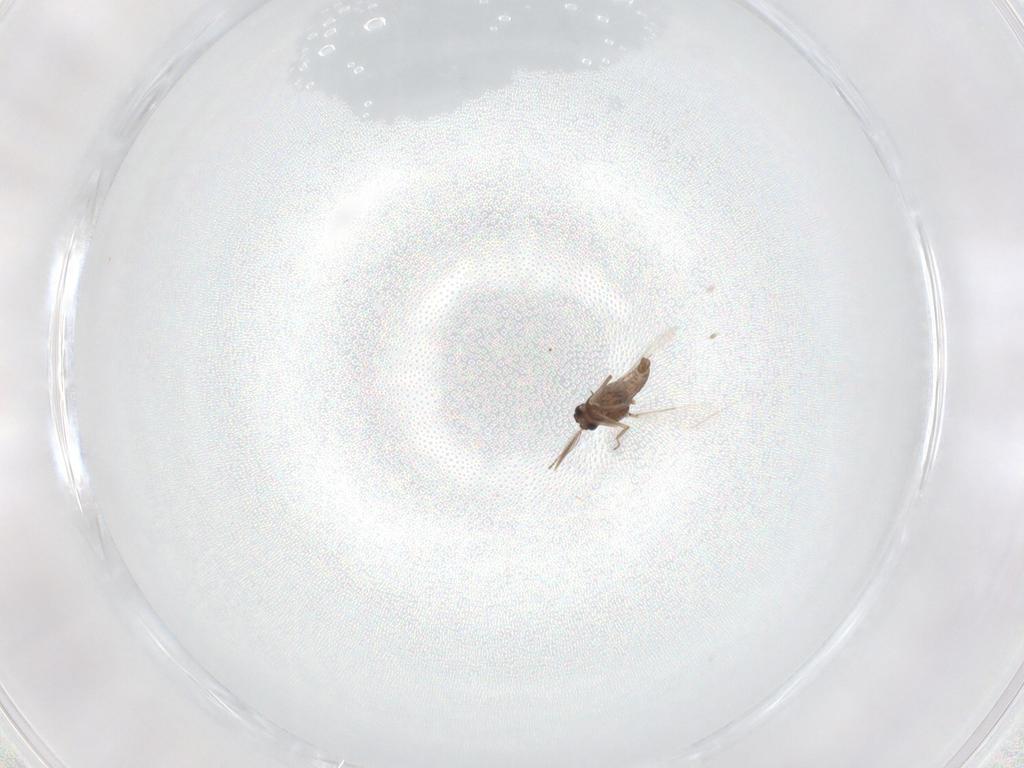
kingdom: Animalia
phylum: Arthropoda
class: Insecta
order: Diptera
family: Ceratopogonidae
